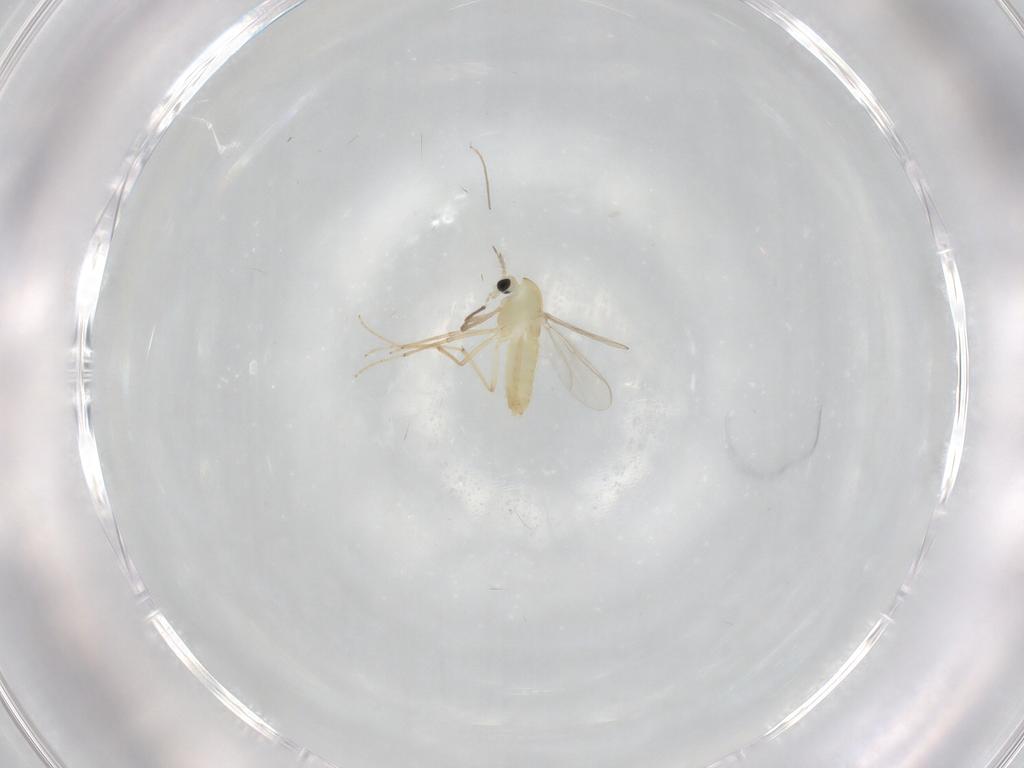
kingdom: Animalia
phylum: Arthropoda
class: Insecta
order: Diptera
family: Chironomidae
